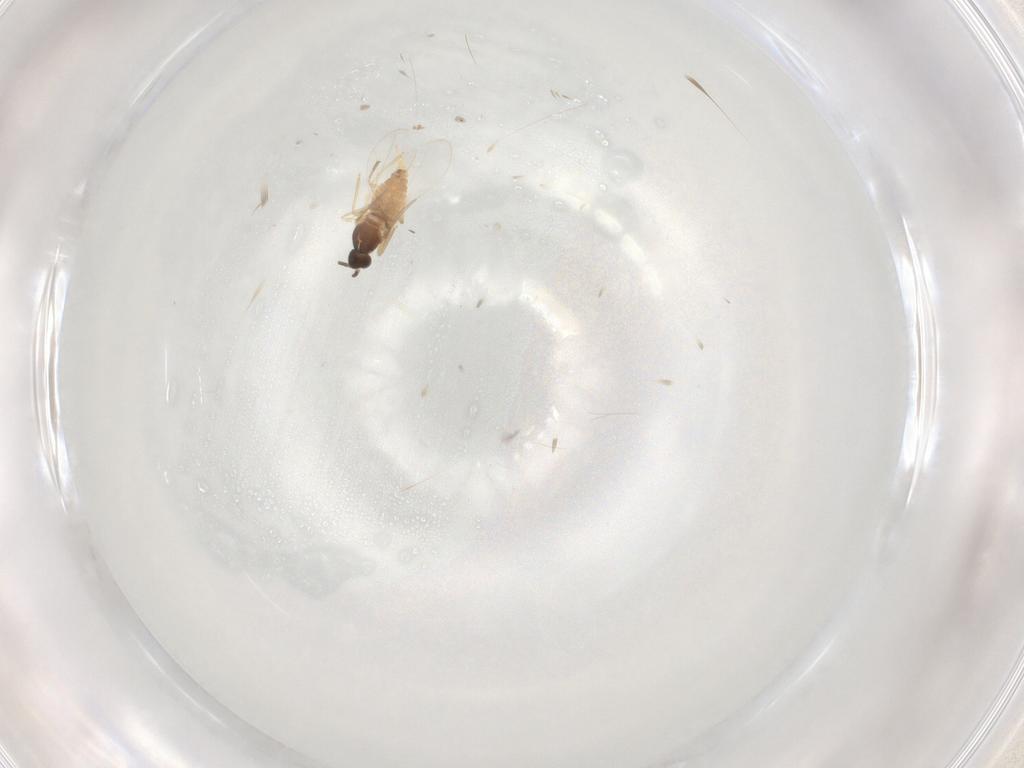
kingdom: Animalia
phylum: Arthropoda
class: Insecta
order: Diptera
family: Cecidomyiidae
